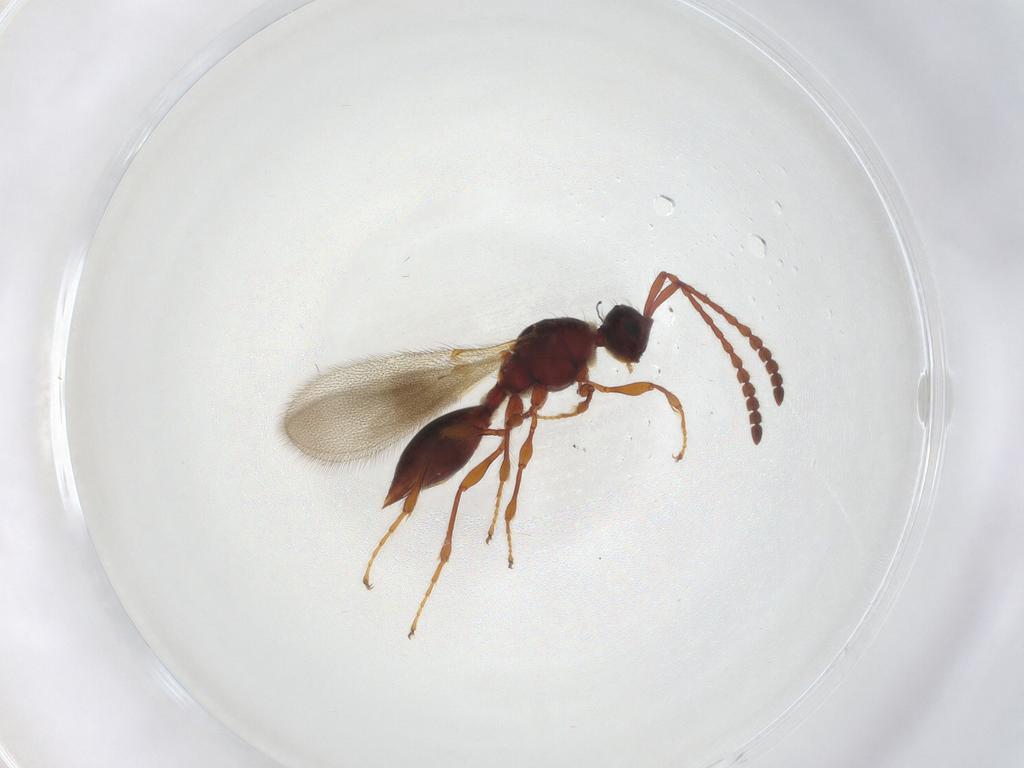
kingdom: Animalia
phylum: Arthropoda
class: Insecta
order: Hymenoptera
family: Diapriidae
